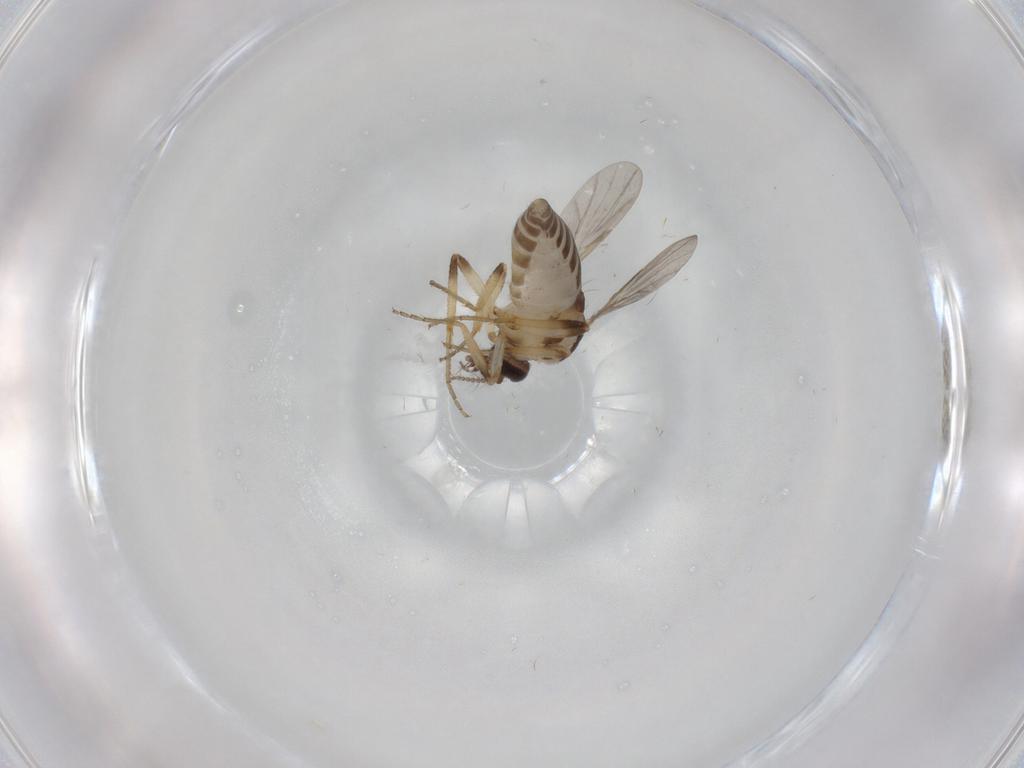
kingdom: Animalia
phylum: Arthropoda
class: Insecta
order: Diptera
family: Ceratopogonidae
